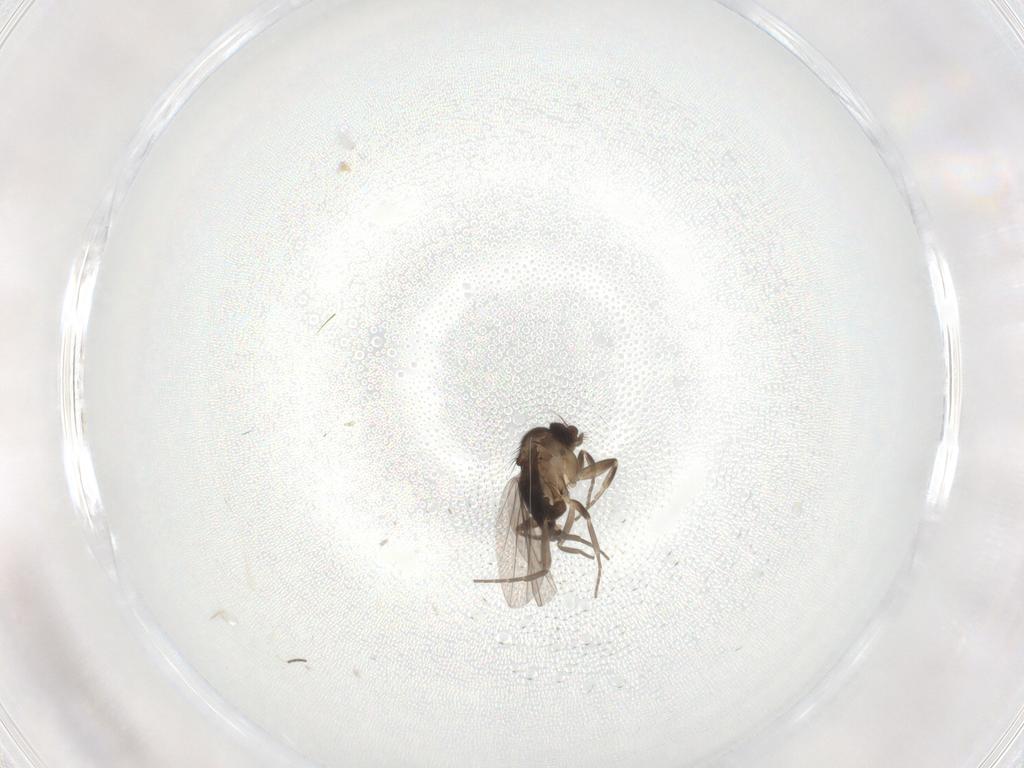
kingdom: Animalia
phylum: Arthropoda
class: Insecta
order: Diptera
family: Phoridae
